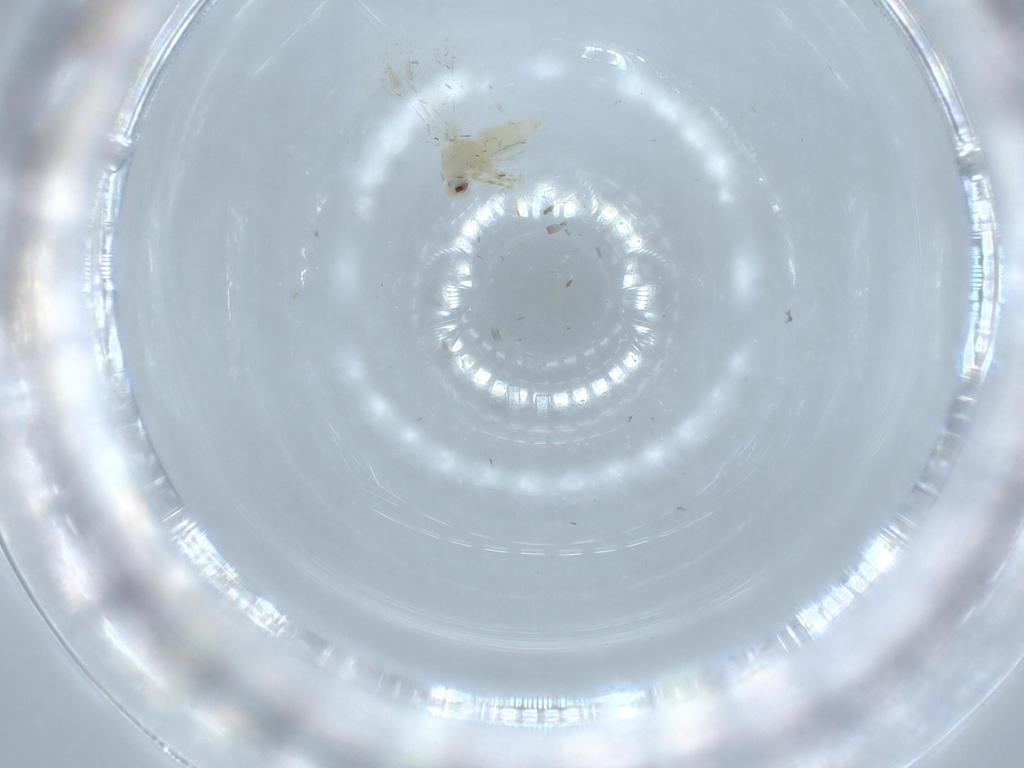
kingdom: Animalia
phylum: Arthropoda
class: Insecta
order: Hemiptera
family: Aleyrodidae
